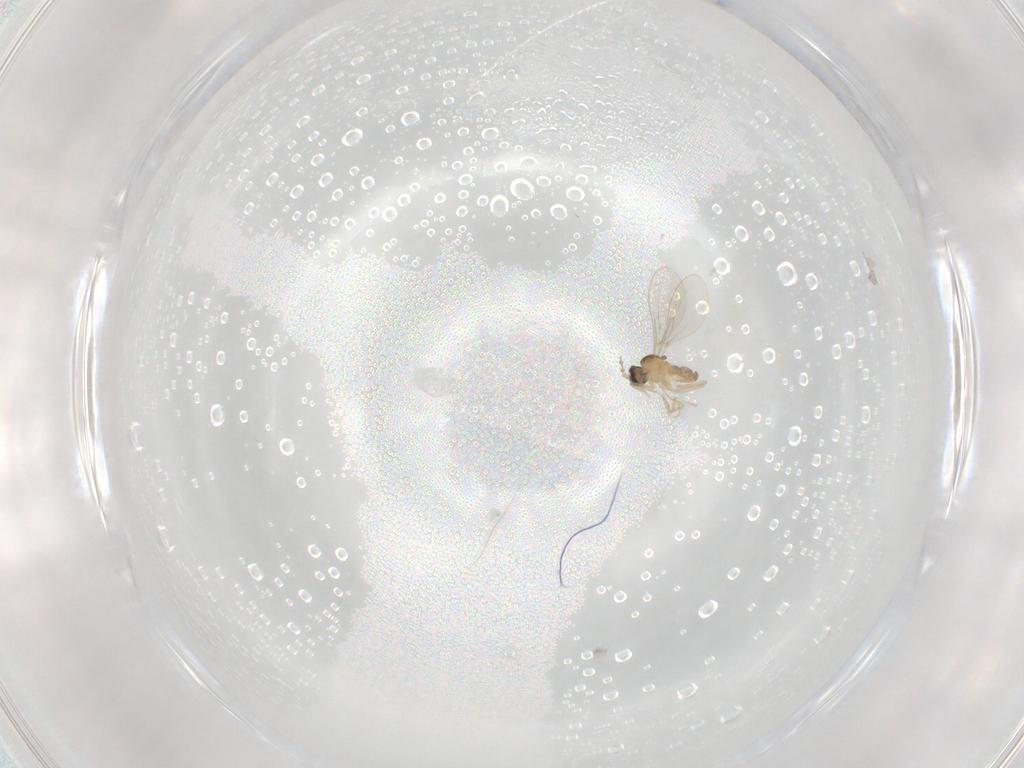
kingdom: Animalia
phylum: Arthropoda
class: Insecta
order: Diptera
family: Cecidomyiidae
